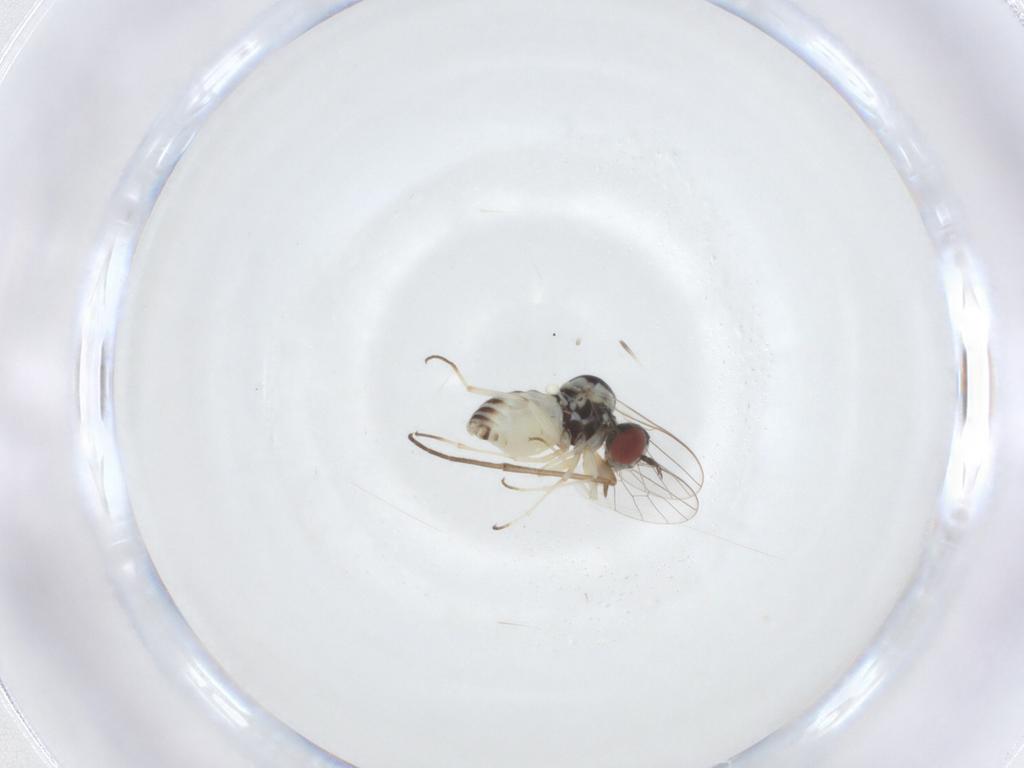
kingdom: Animalia
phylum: Arthropoda
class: Insecta
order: Diptera
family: Mythicomyiidae
